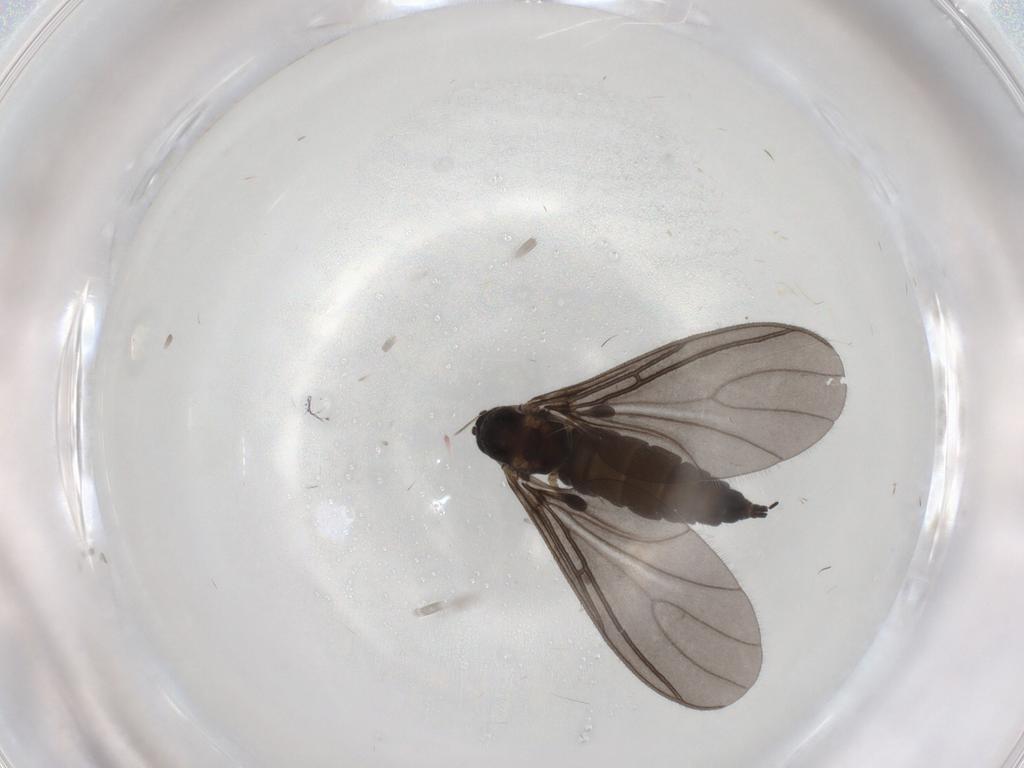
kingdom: Animalia
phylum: Arthropoda
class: Insecta
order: Diptera
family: Sciaridae
